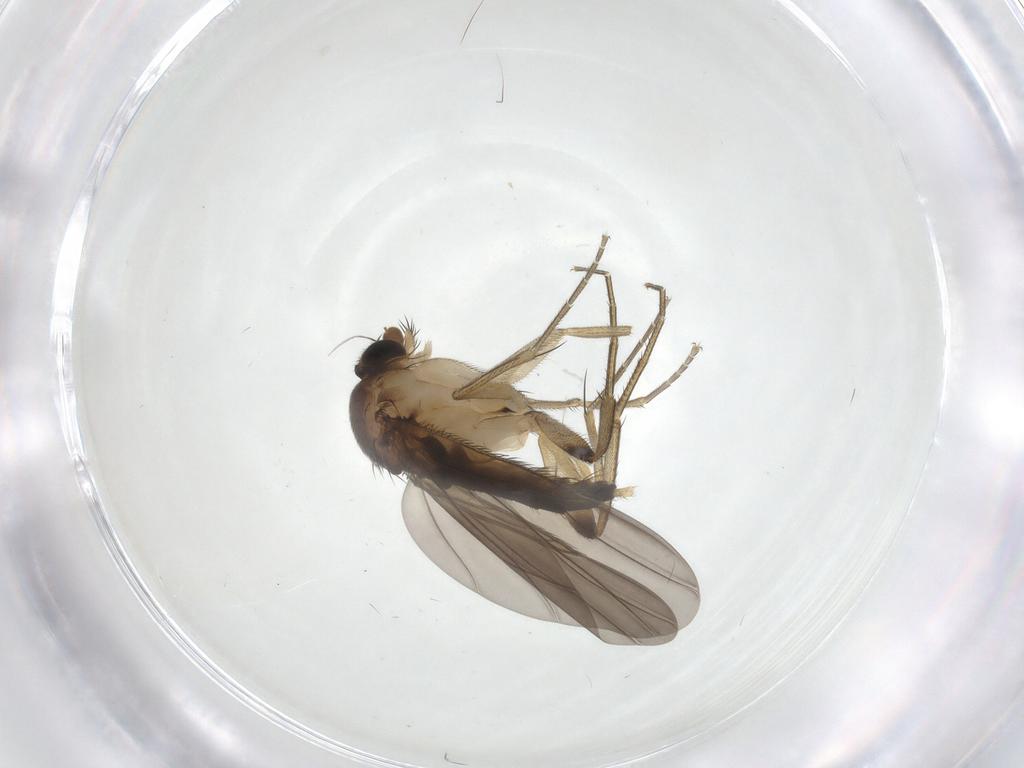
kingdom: Animalia
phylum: Arthropoda
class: Insecta
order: Diptera
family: Phoridae
